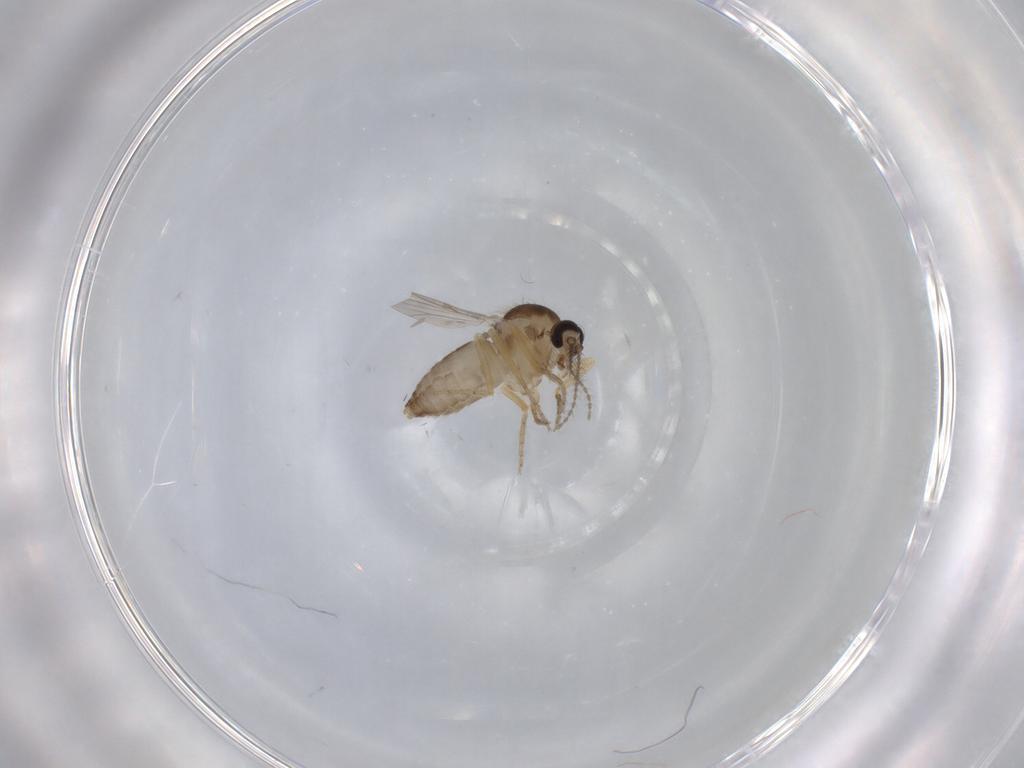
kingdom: Animalia
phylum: Arthropoda
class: Insecta
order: Diptera
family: Ceratopogonidae
